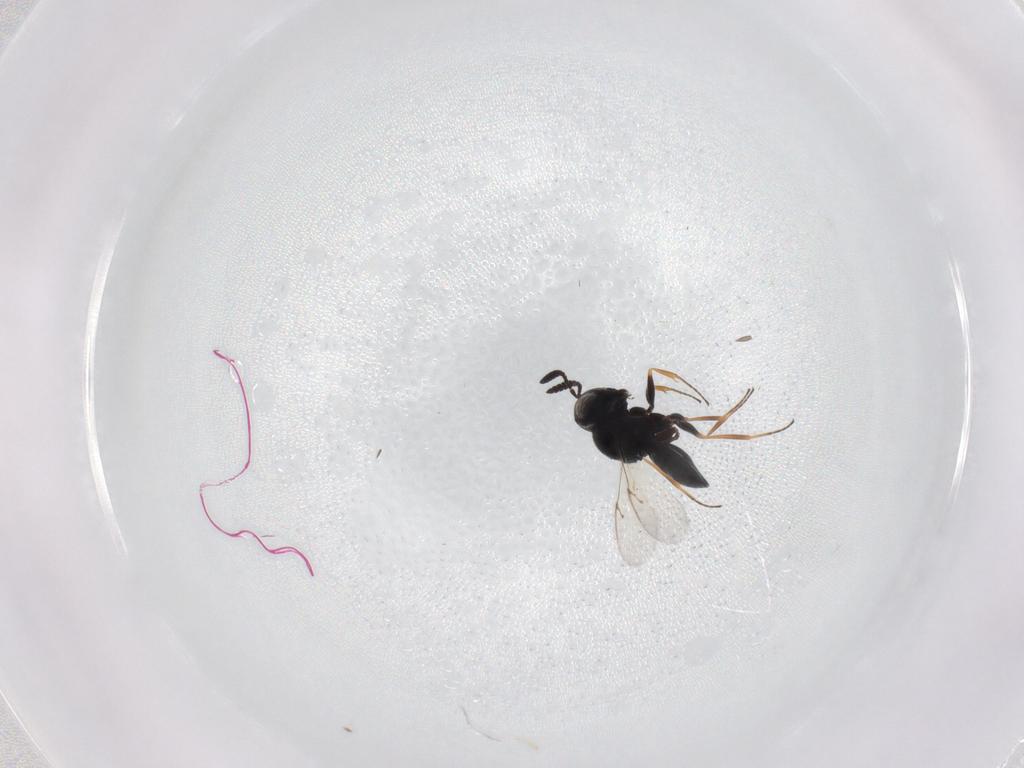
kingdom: Animalia
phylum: Arthropoda
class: Insecta
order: Hymenoptera
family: Scelionidae
